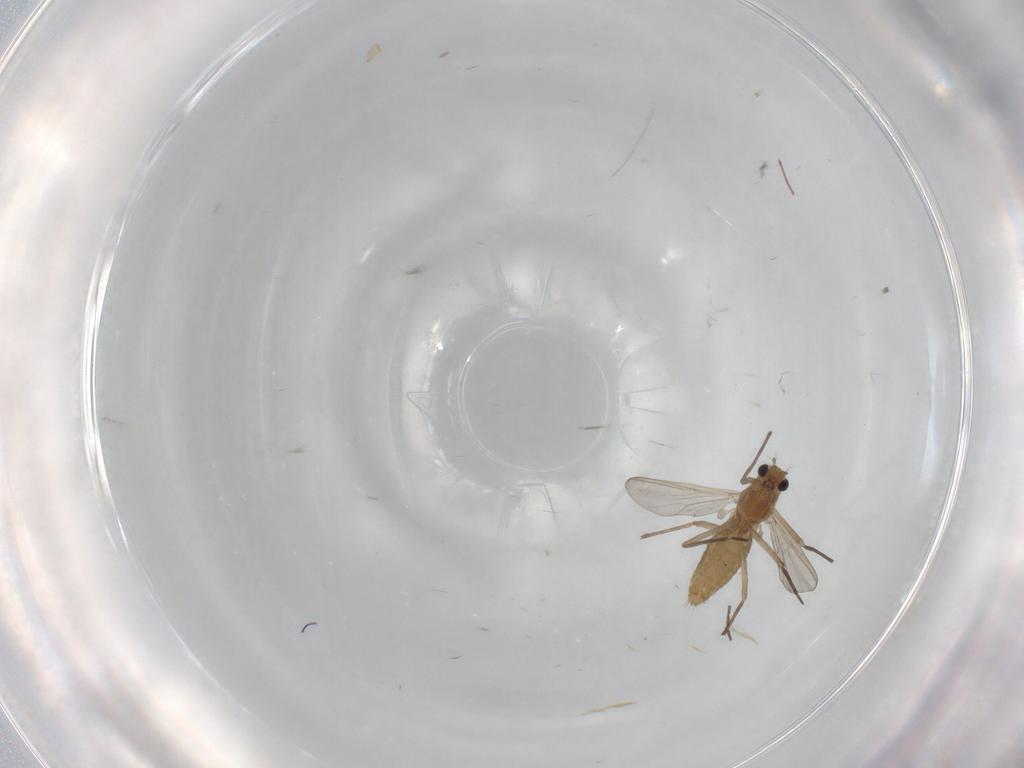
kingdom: Animalia
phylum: Arthropoda
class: Insecta
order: Diptera
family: Chironomidae
